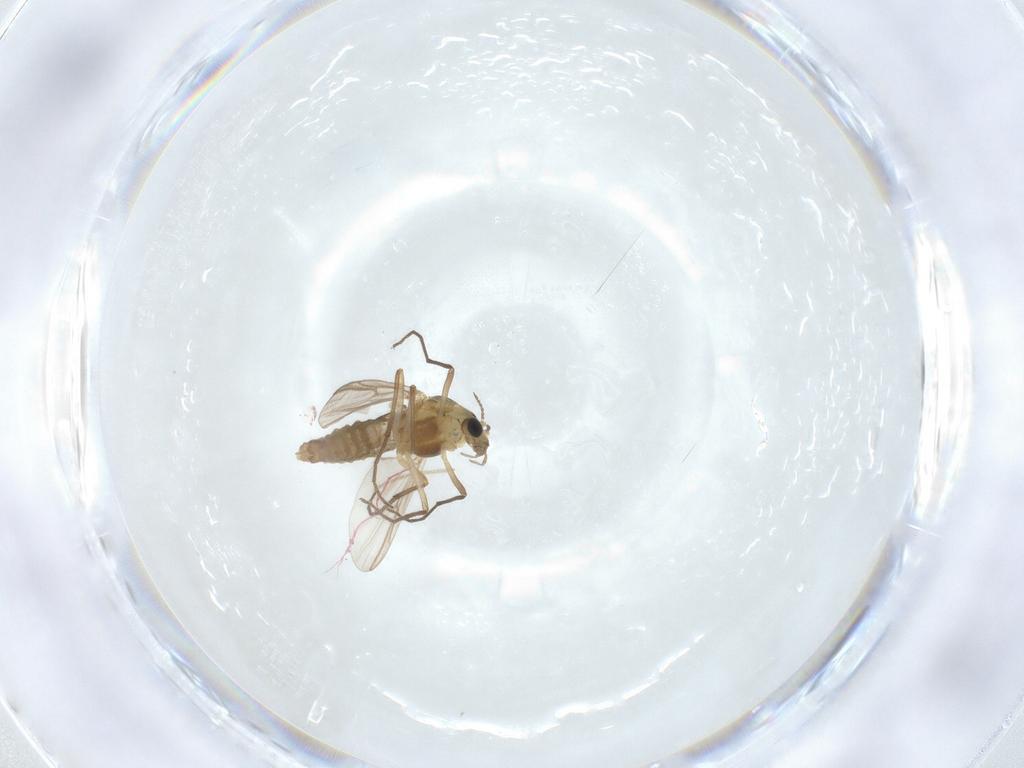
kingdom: Animalia
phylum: Arthropoda
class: Insecta
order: Diptera
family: Chironomidae
